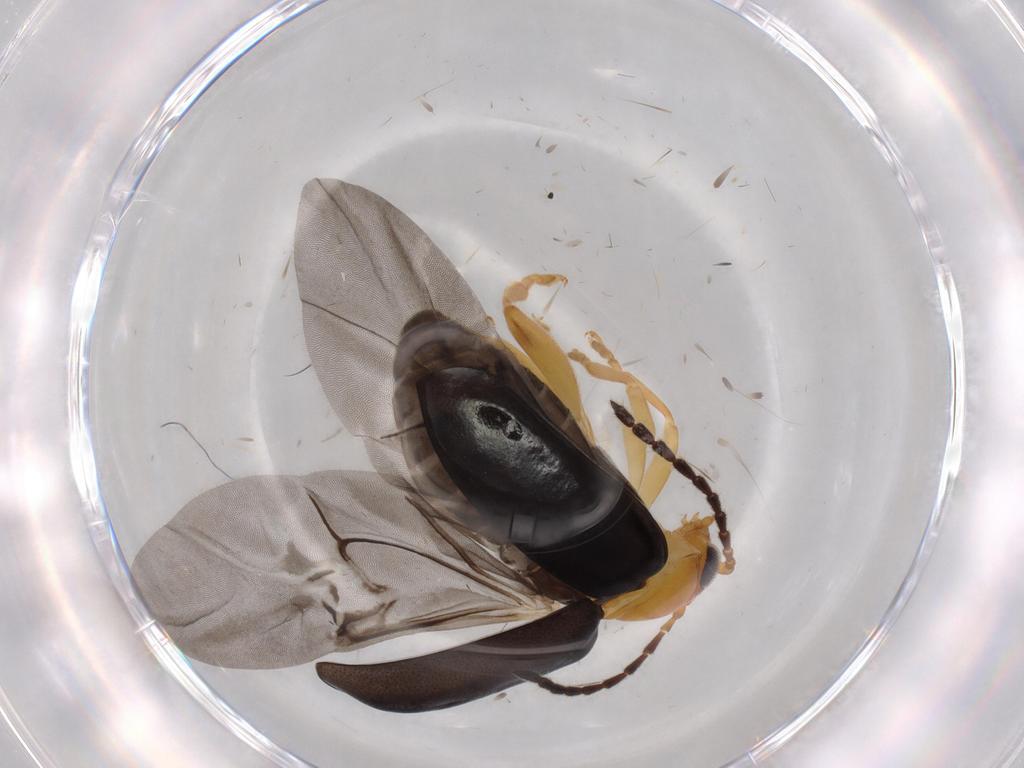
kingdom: Animalia
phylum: Arthropoda
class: Insecta
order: Coleoptera
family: Chrysomelidae
